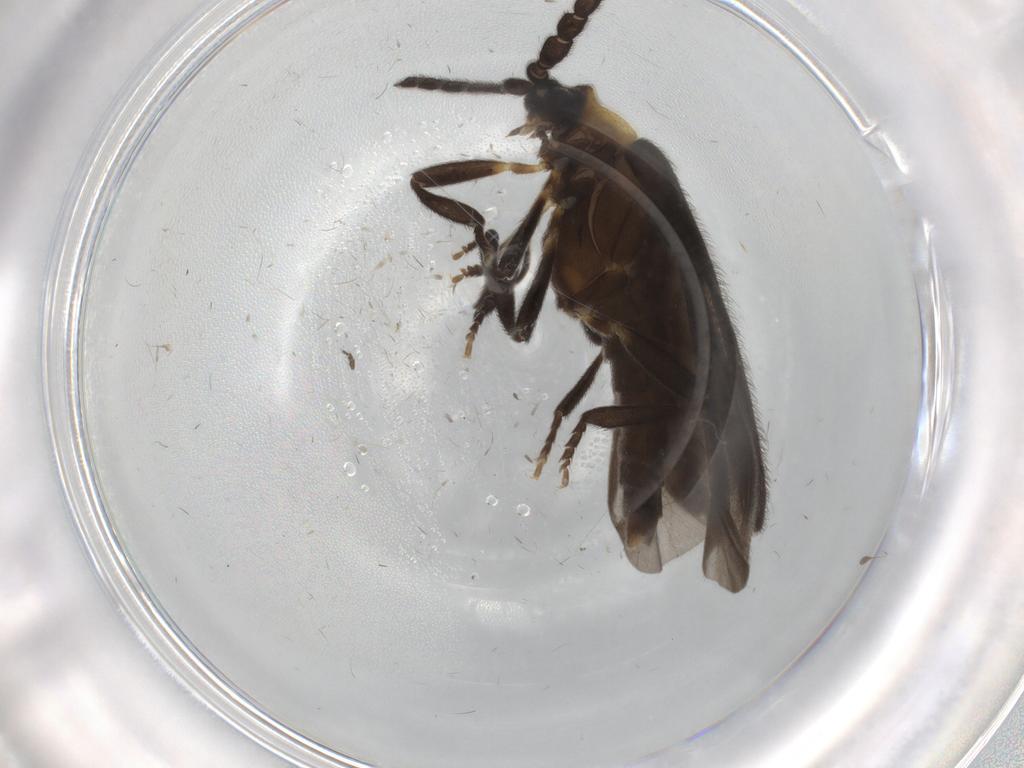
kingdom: Animalia
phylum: Arthropoda
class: Insecta
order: Coleoptera
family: Lycidae
